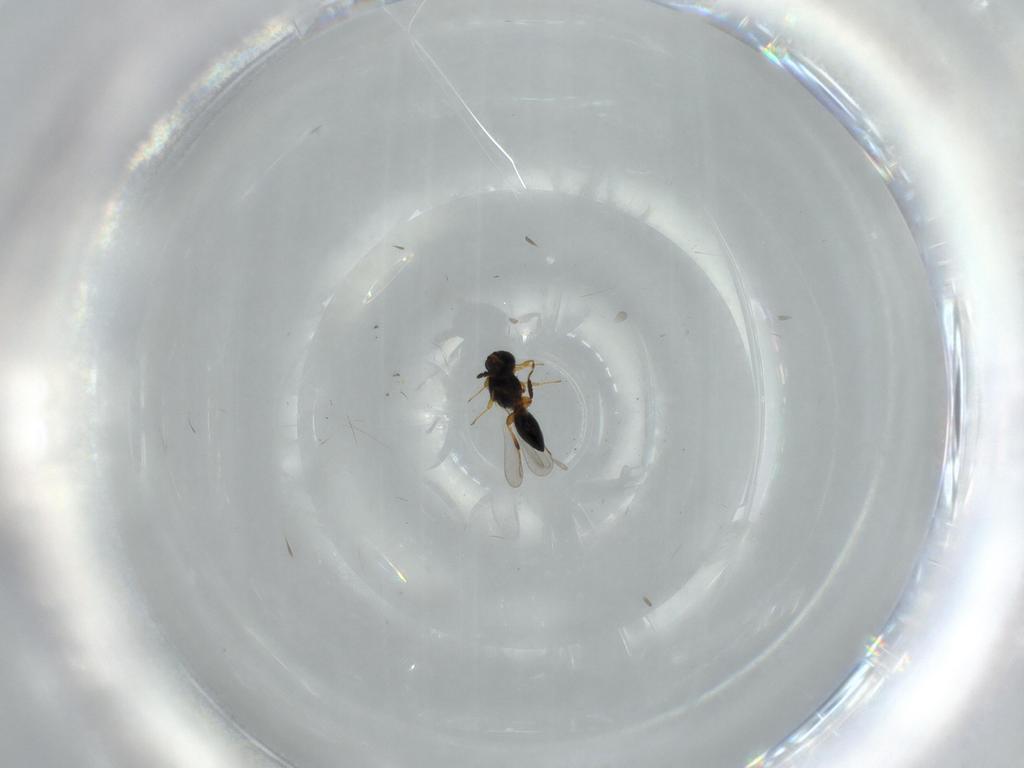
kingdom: Animalia
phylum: Arthropoda
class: Insecta
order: Hymenoptera
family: Platygastridae
